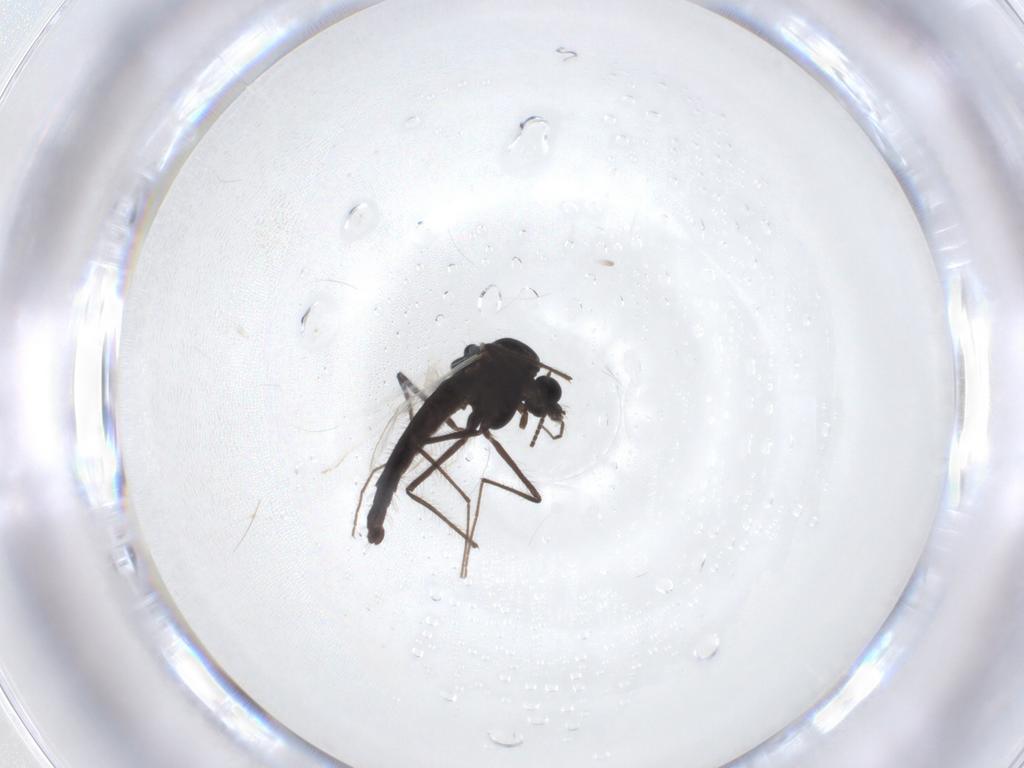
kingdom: Animalia
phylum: Arthropoda
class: Insecta
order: Diptera
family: Sciaridae
